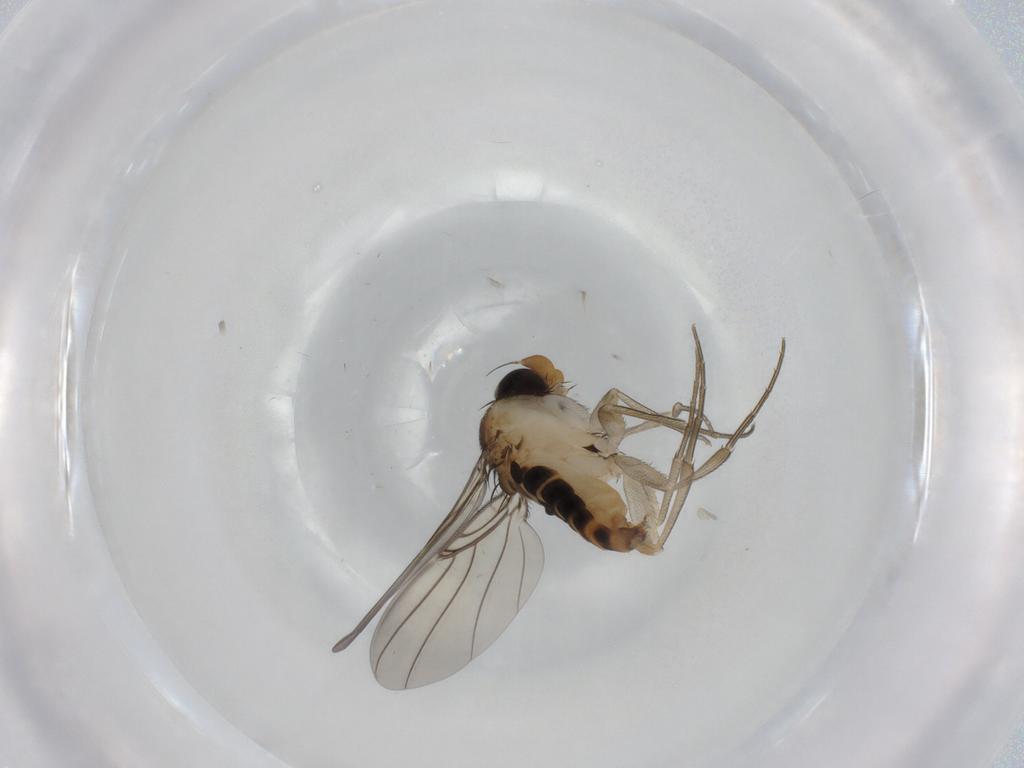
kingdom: Animalia
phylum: Arthropoda
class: Insecta
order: Diptera
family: Phoridae
